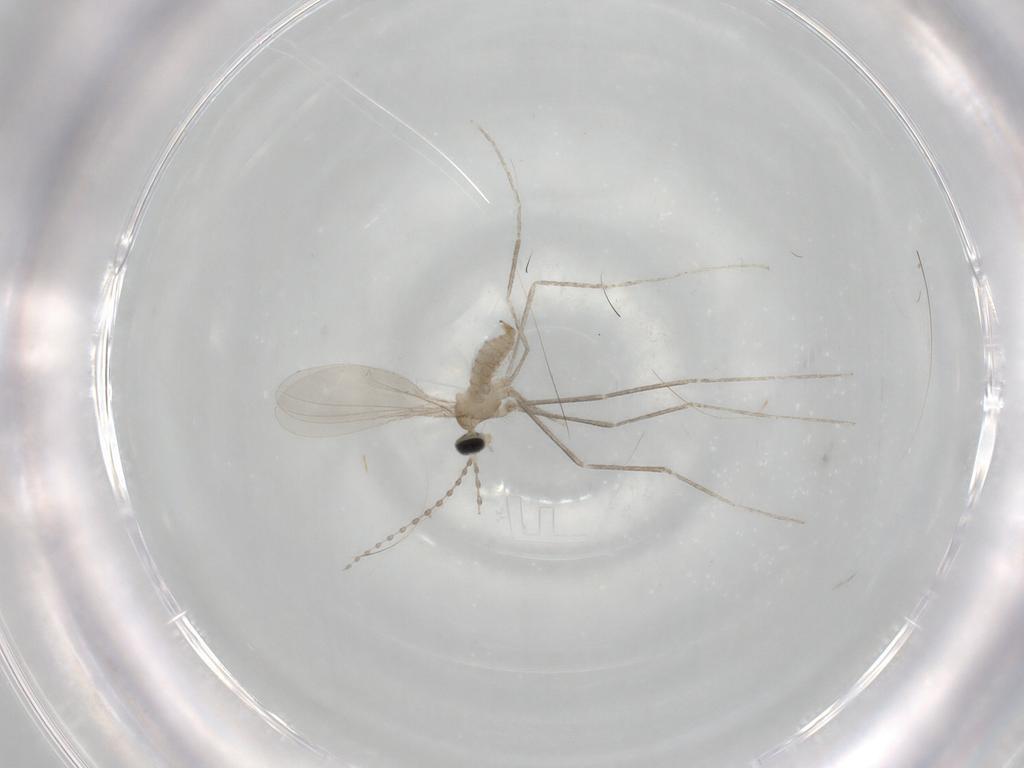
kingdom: Animalia
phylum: Arthropoda
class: Insecta
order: Diptera
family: Cecidomyiidae
